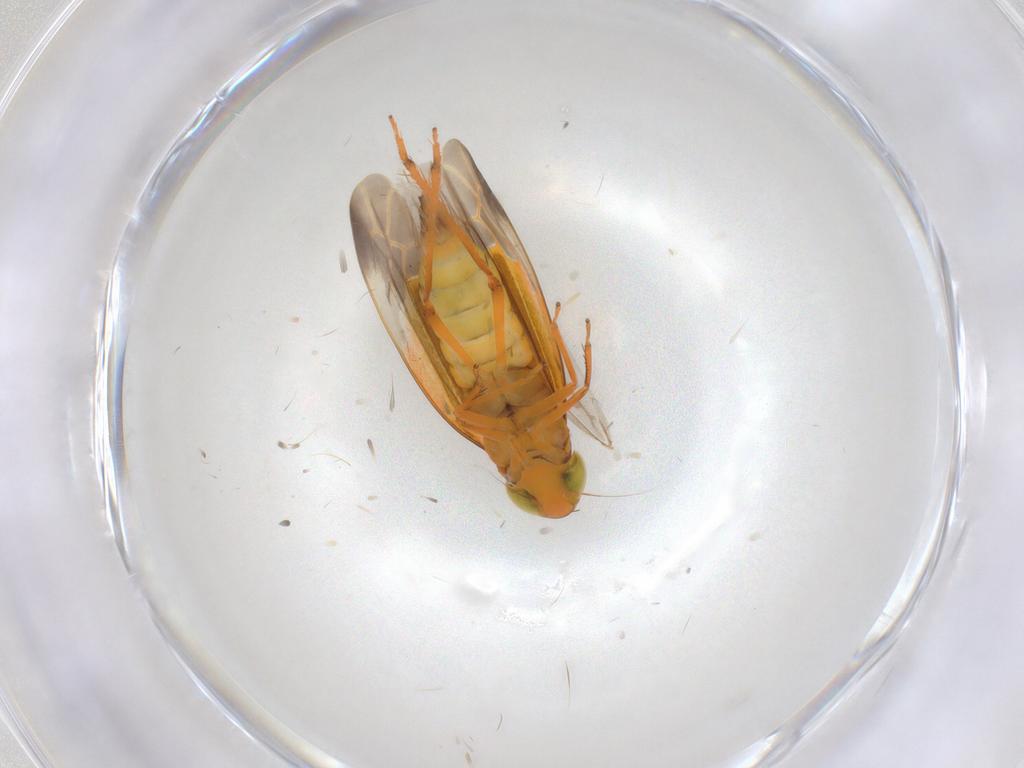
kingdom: Animalia
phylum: Arthropoda
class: Insecta
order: Hemiptera
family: Cicadellidae
